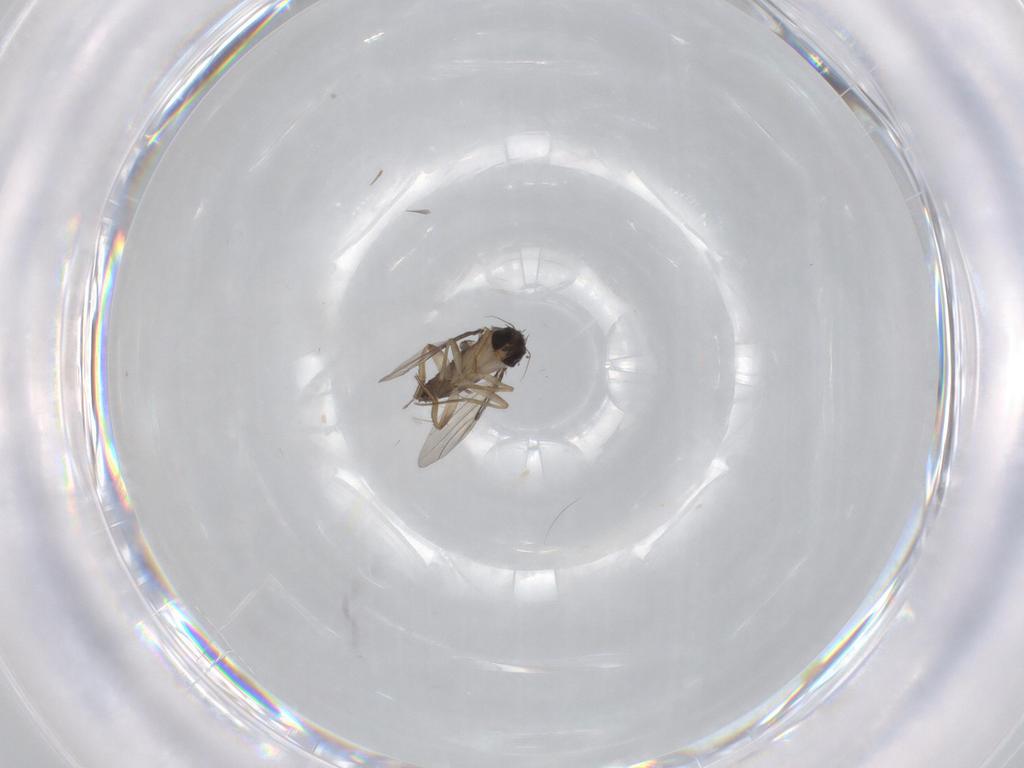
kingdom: Animalia
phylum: Arthropoda
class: Insecta
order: Diptera
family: Phoridae
